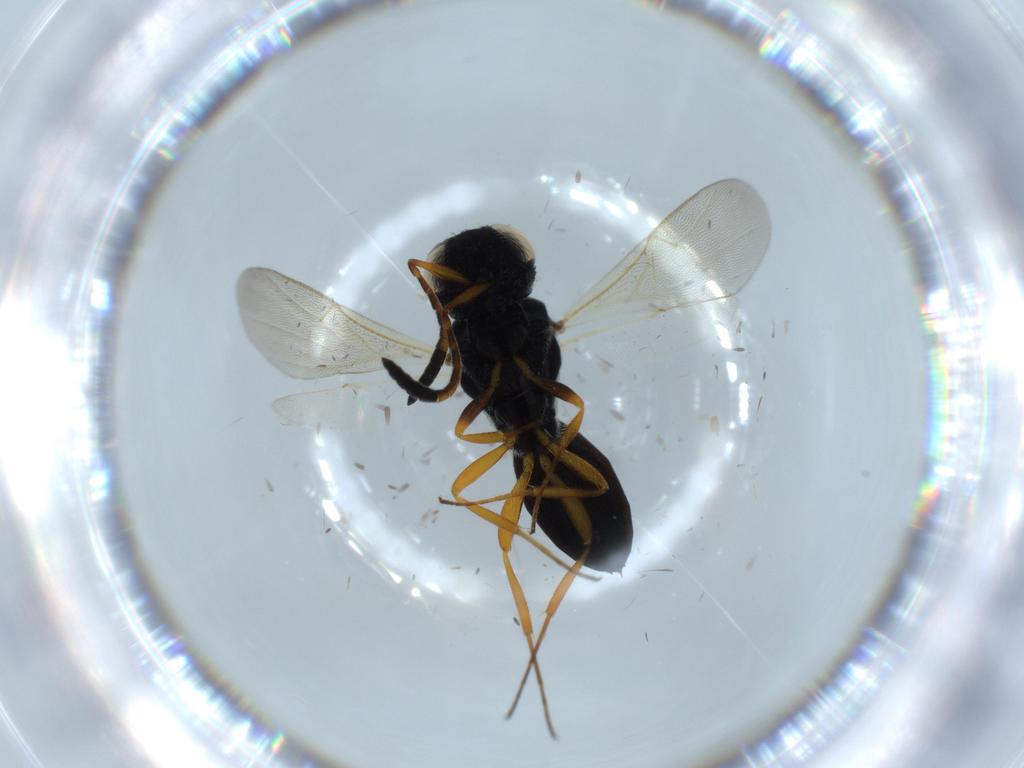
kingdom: Animalia
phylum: Arthropoda
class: Insecta
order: Hymenoptera
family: Scelionidae
